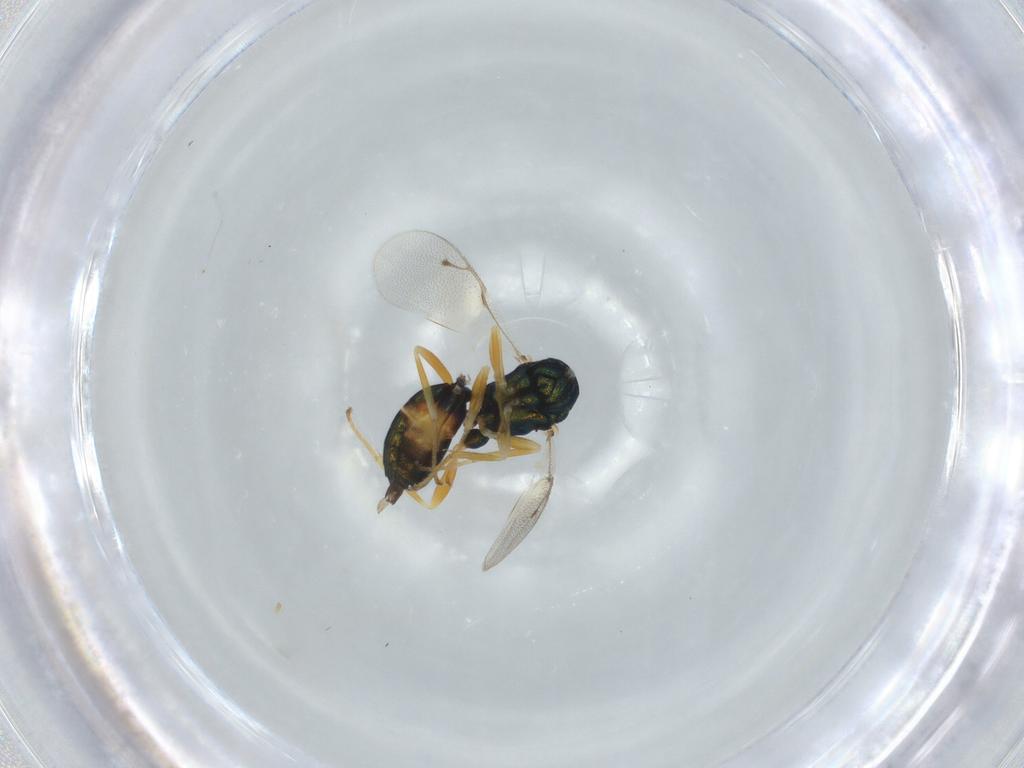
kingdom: Animalia
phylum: Arthropoda
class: Insecta
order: Hymenoptera
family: Pteromalidae
